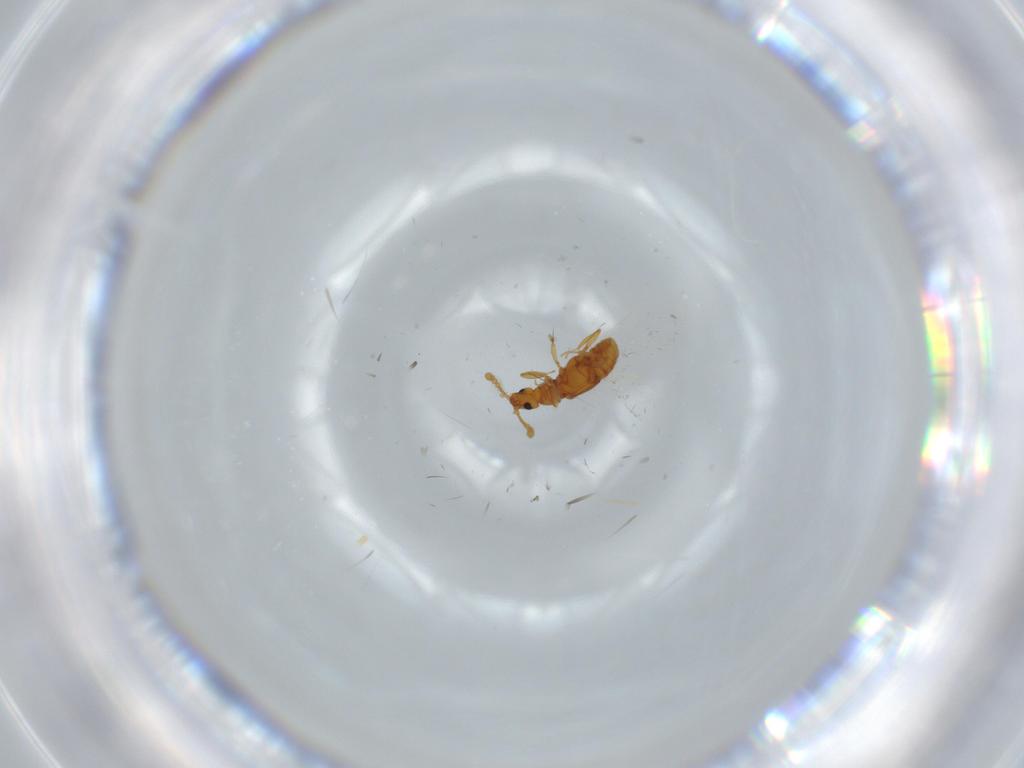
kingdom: Animalia
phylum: Arthropoda
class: Insecta
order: Coleoptera
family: Staphylinidae
